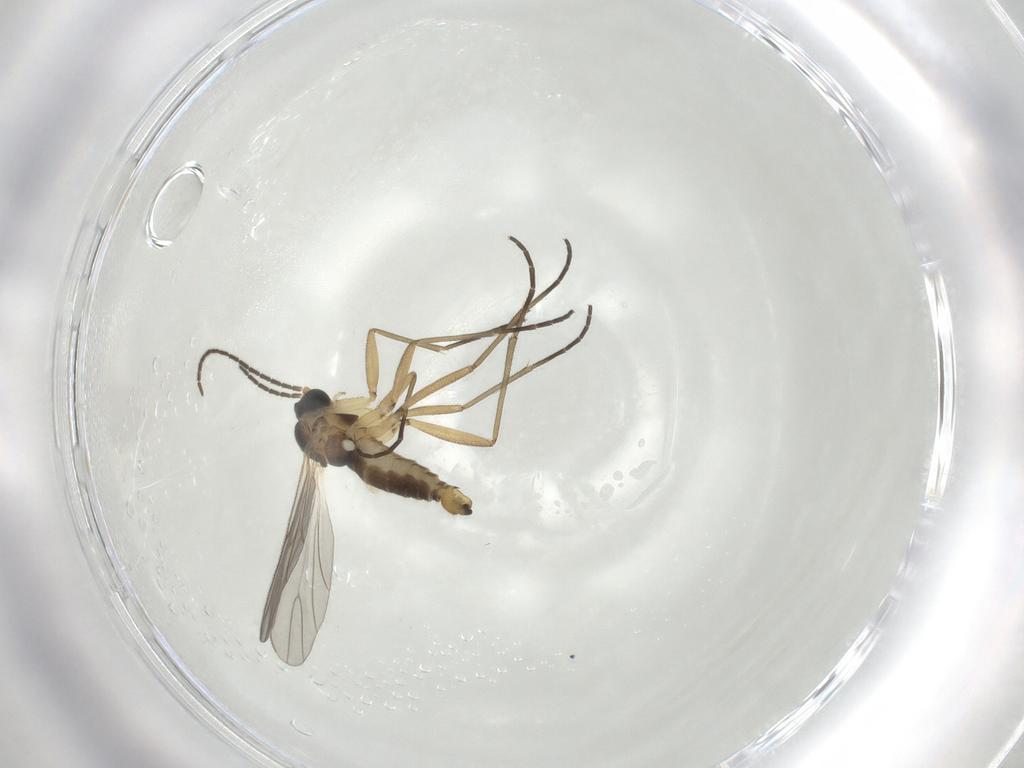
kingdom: Animalia
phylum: Arthropoda
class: Insecta
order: Diptera
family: Sciaridae
